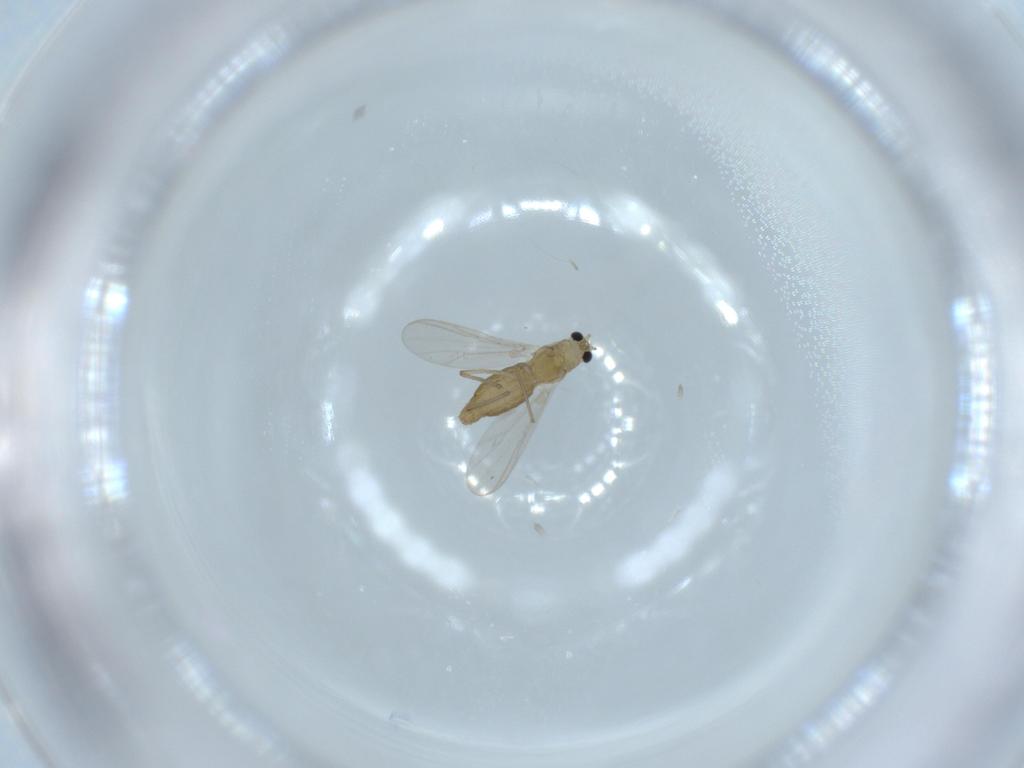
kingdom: Animalia
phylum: Arthropoda
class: Insecta
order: Diptera
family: Chironomidae
